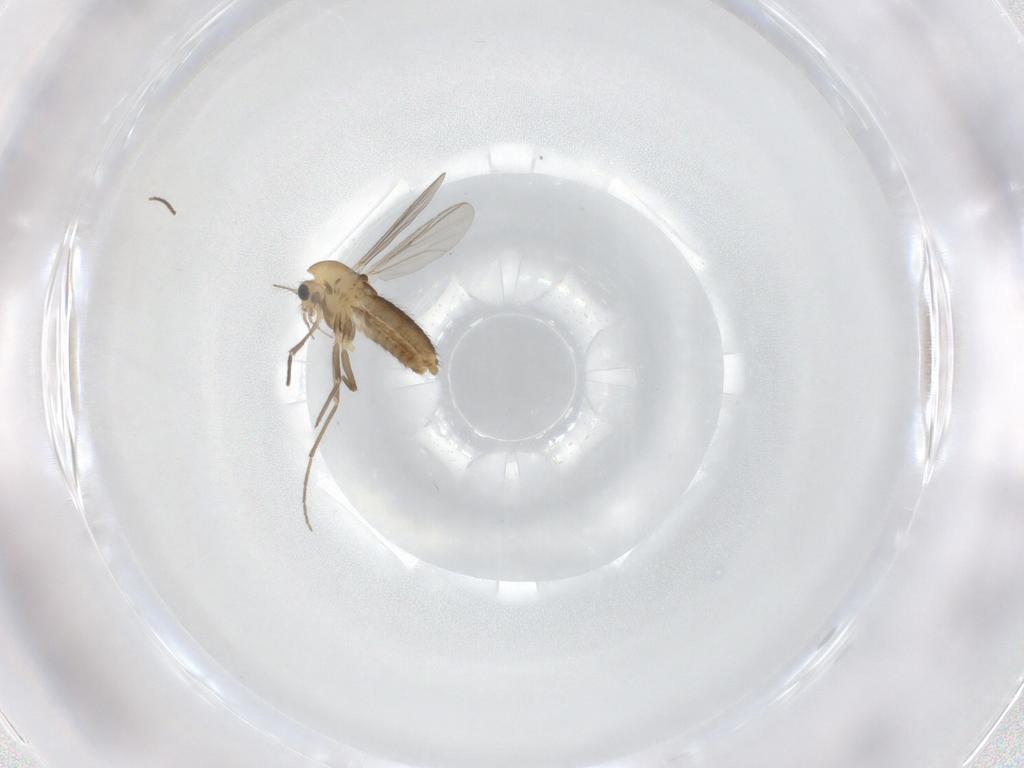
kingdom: Animalia
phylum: Arthropoda
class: Insecta
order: Diptera
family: Chironomidae
